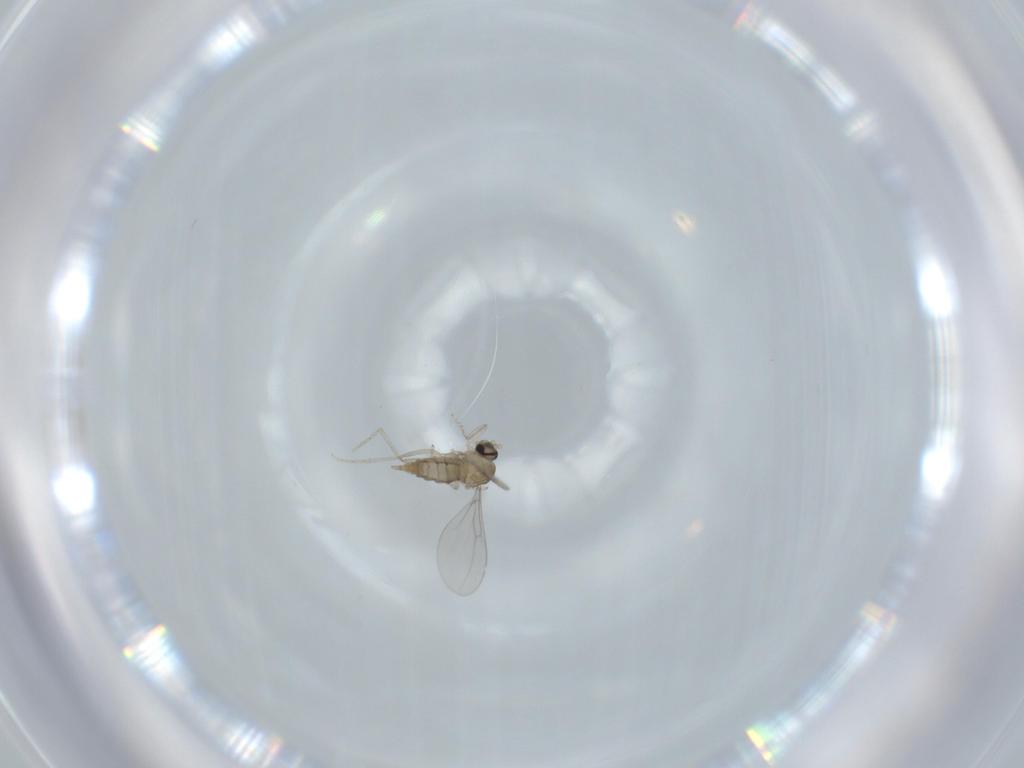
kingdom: Animalia
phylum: Arthropoda
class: Insecta
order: Diptera
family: Cecidomyiidae
